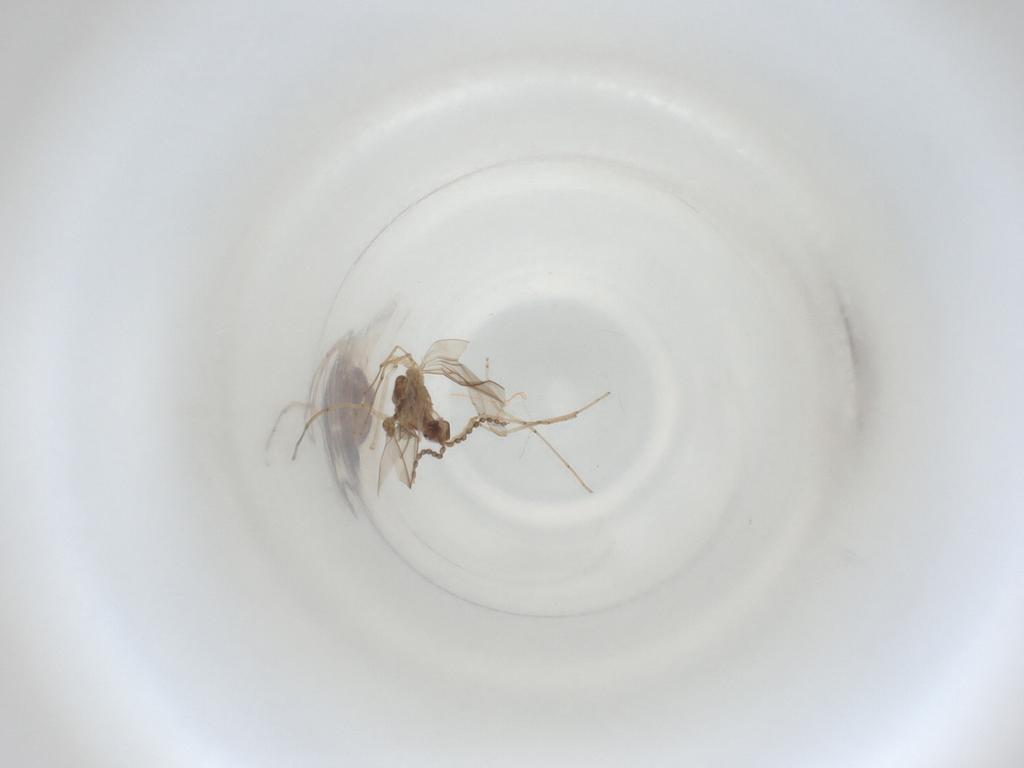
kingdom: Animalia
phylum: Arthropoda
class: Insecta
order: Diptera
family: Cecidomyiidae
